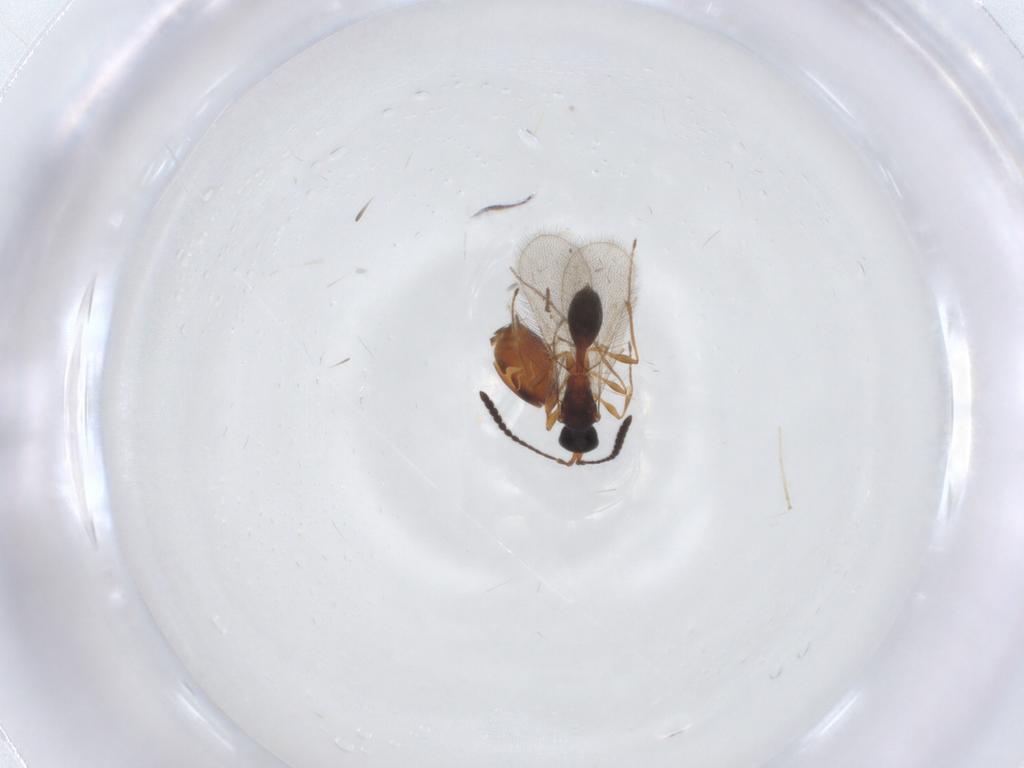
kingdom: Animalia
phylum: Arthropoda
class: Insecta
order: Hymenoptera
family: Diapriidae
